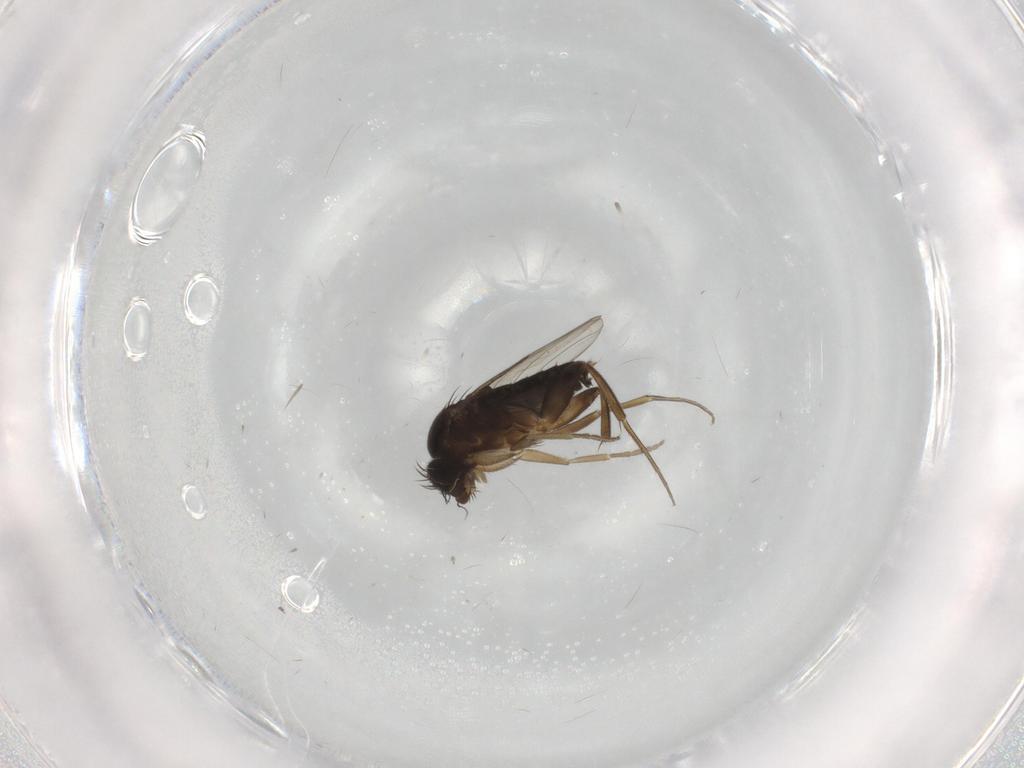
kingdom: Animalia
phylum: Arthropoda
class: Insecta
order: Diptera
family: Phoridae
